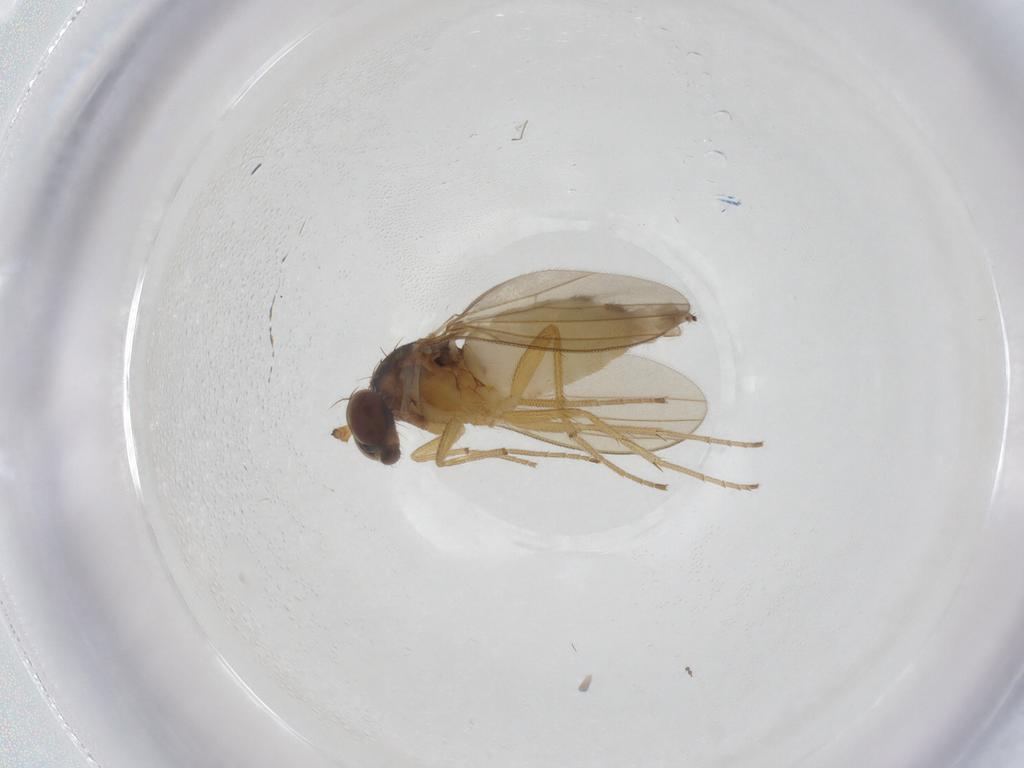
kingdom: Animalia
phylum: Arthropoda
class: Insecta
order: Diptera
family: Dolichopodidae
